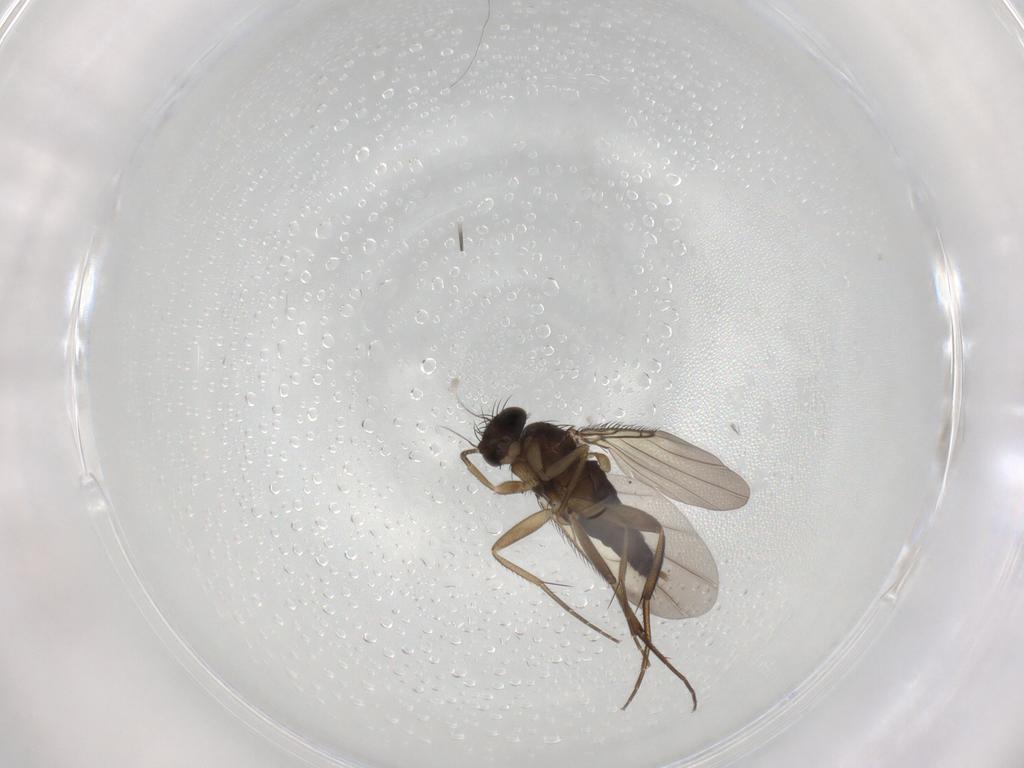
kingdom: Animalia
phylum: Arthropoda
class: Insecta
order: Diptera
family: Phoridae
